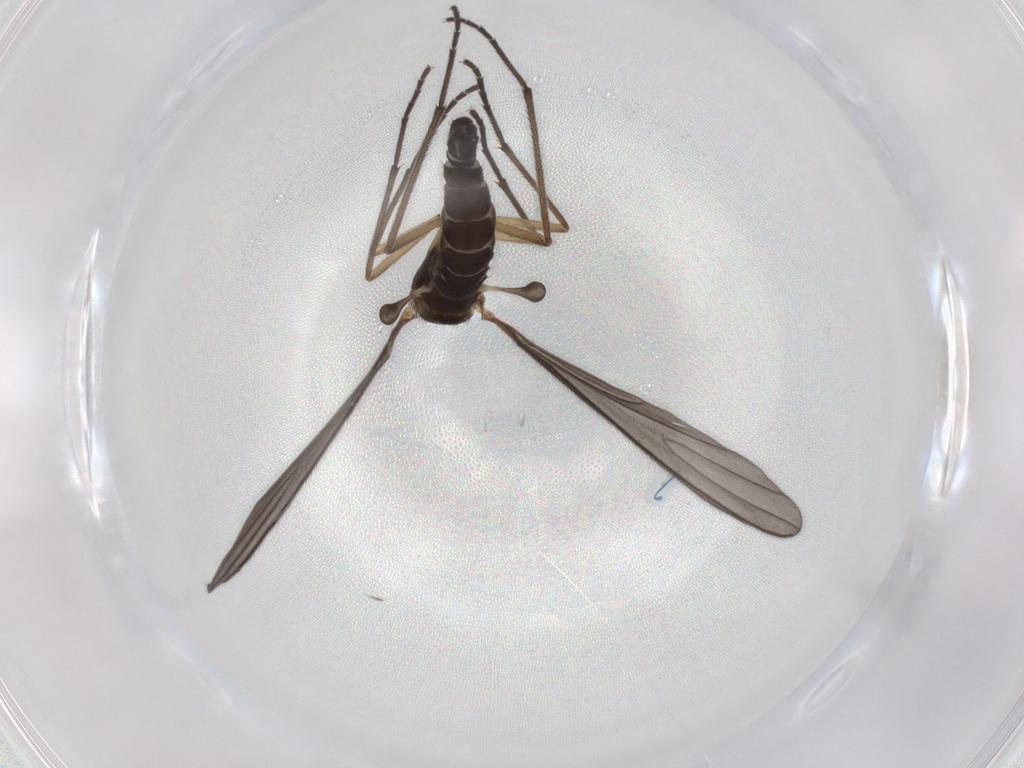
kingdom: Animalia
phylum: Arthropoda
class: Insecta
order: Diptera
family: Sciaridae
